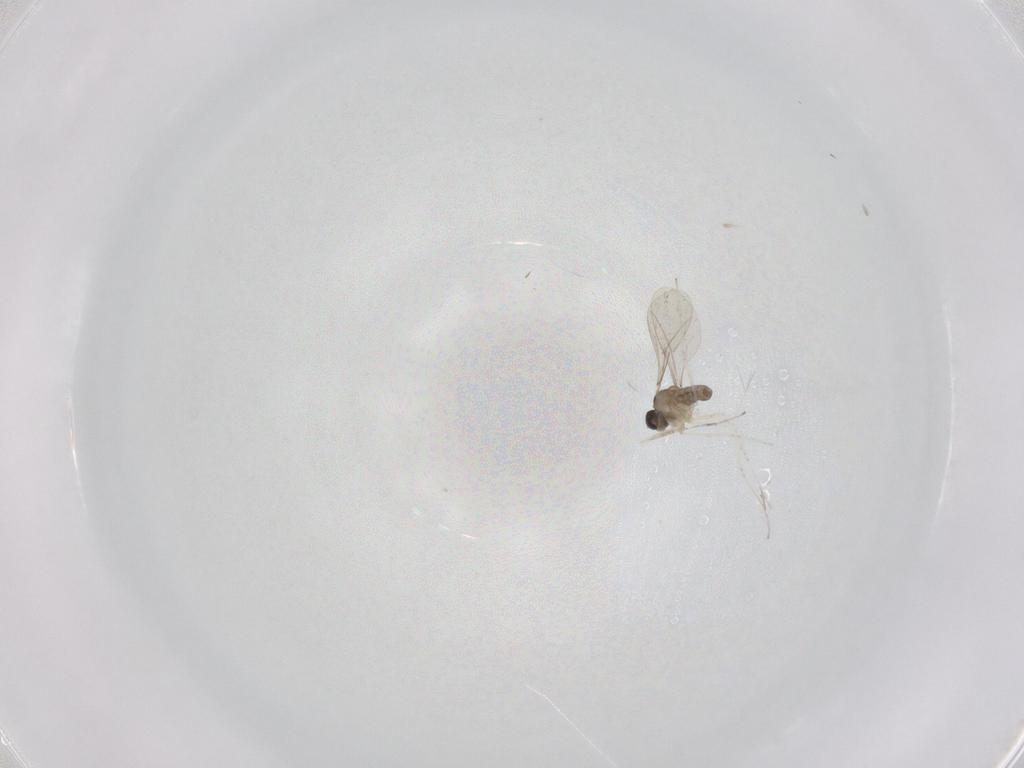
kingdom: Animalia
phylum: Arthropoda
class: Insecta
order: Diptera
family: Cecidomyiidae
